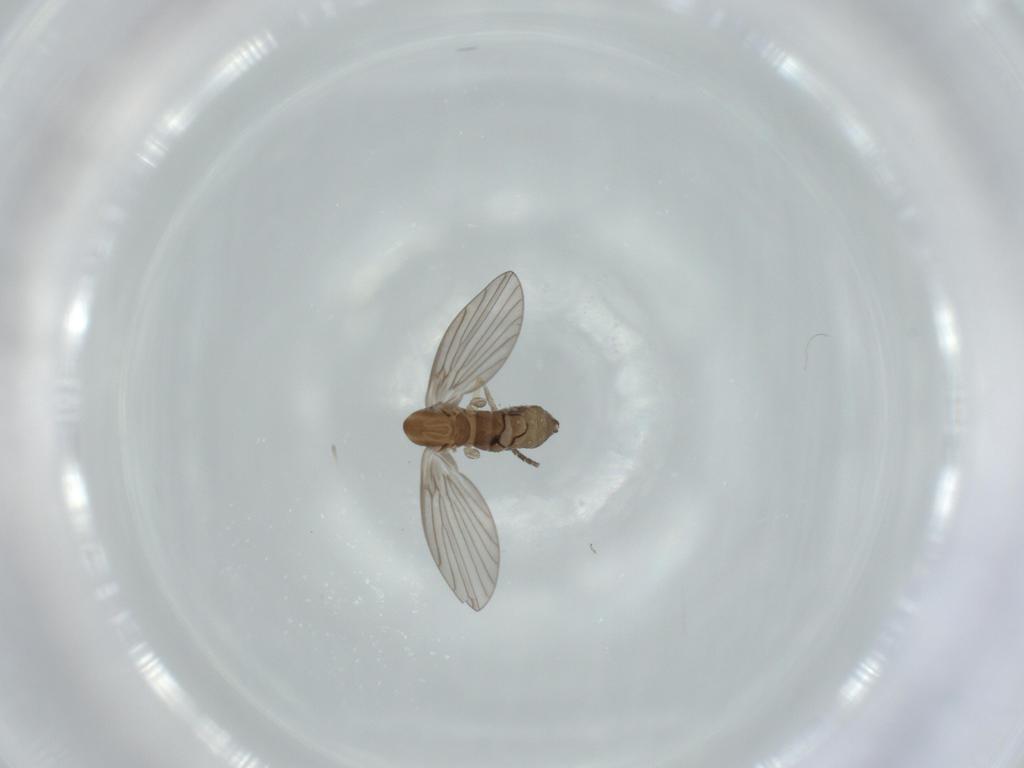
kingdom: Animalia
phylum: Arthropoda
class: Insecta
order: Diptera
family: Psychodidae
